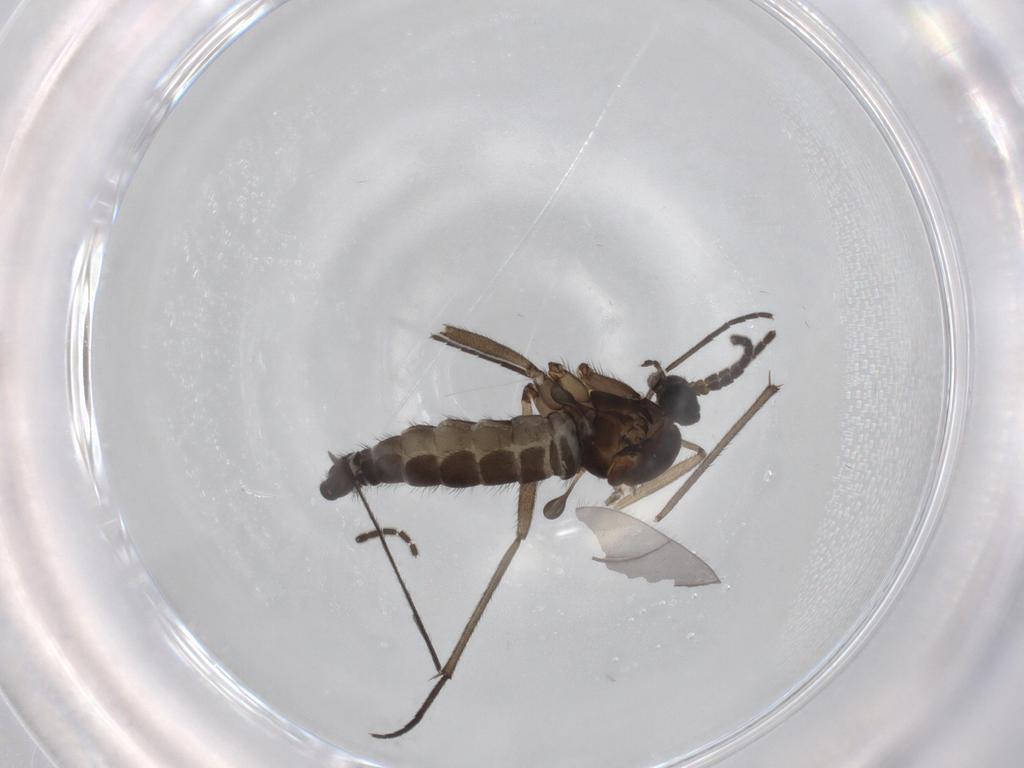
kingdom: Animalia
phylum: Arthropoda
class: Insecta
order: Diptera
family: Sciaridae
